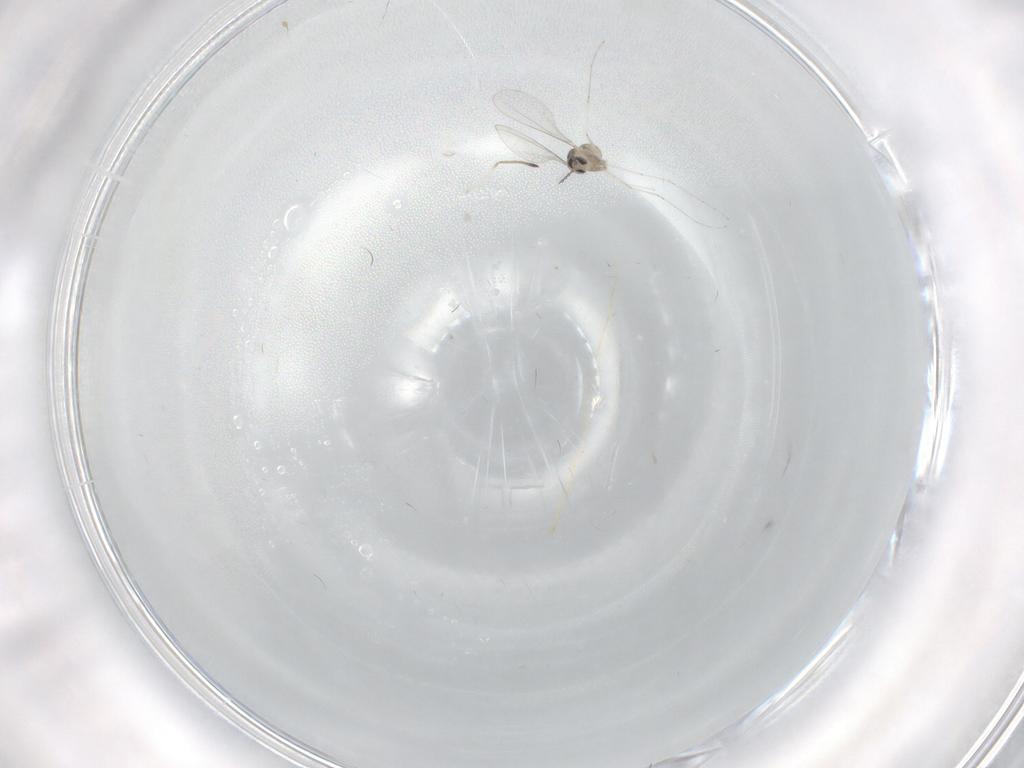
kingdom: Animalia
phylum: Arthropoda
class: Insecta
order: Diptera
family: Cecidomyiidae
